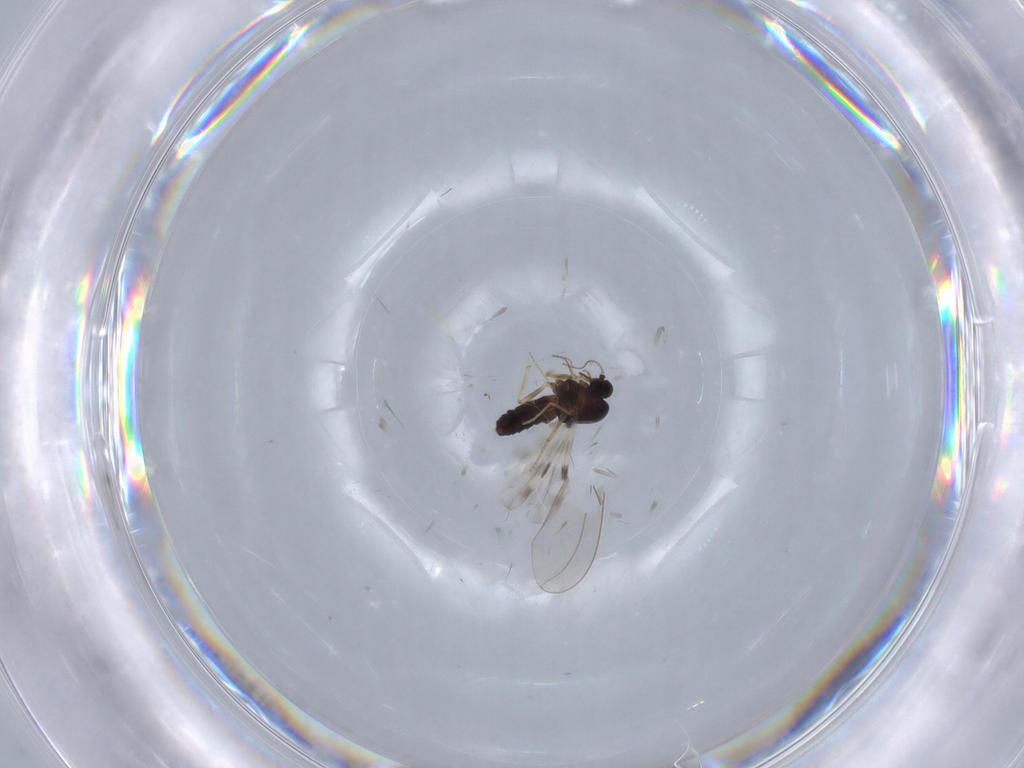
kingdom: Animalia
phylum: Arthropoda
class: Insecta
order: Diptera
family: Ceratopogonidae
